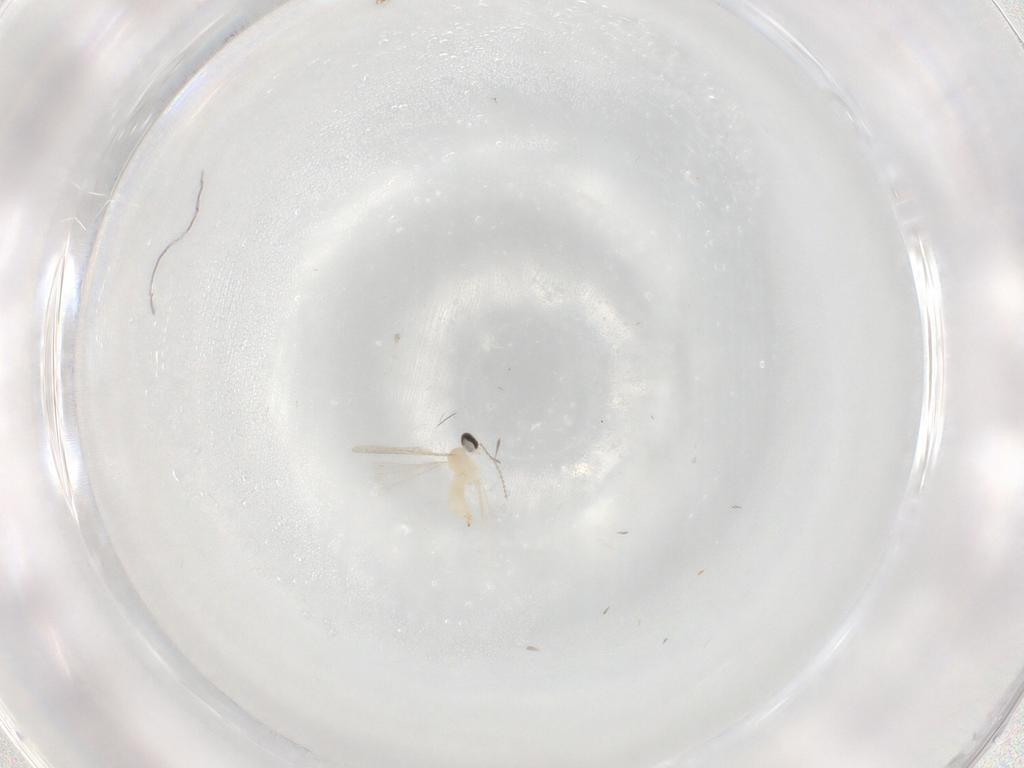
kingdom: Animalia
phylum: Arthropoda
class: Insecta
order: Diptera
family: Cecidomyiidae
